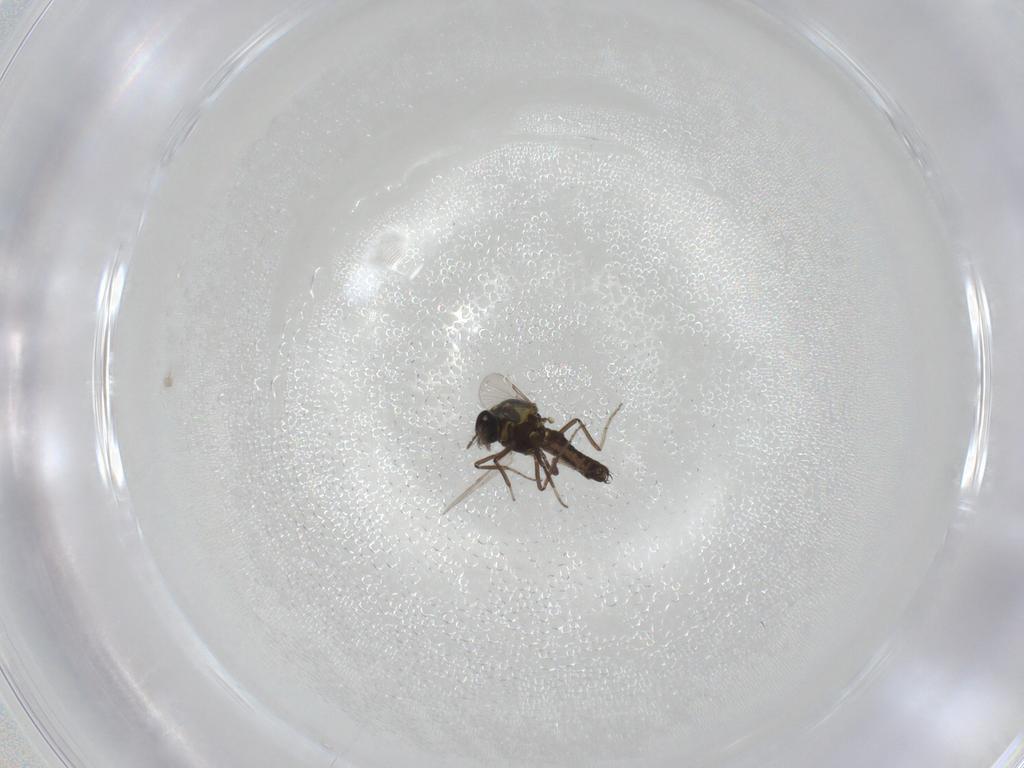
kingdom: Animalia
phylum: Arthropoda
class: Insecta
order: Diptera
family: Ceratopogonidae
